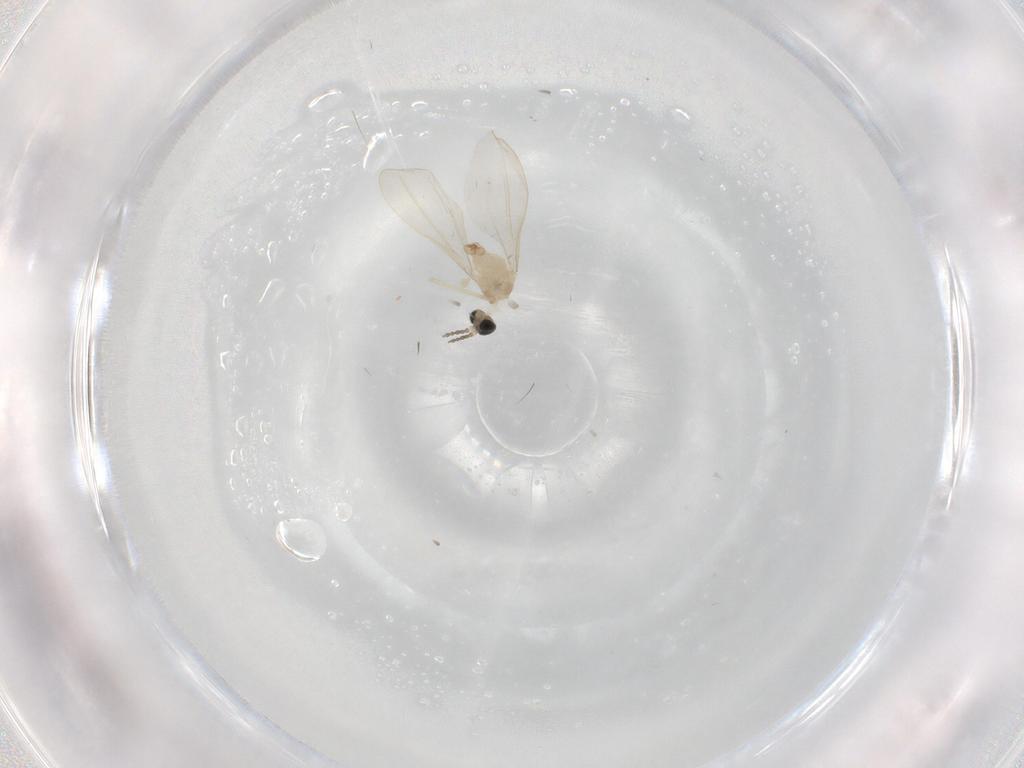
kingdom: Animalia
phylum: Arthropoda
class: Insecta
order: Diptera
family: Cecidomyiidae
